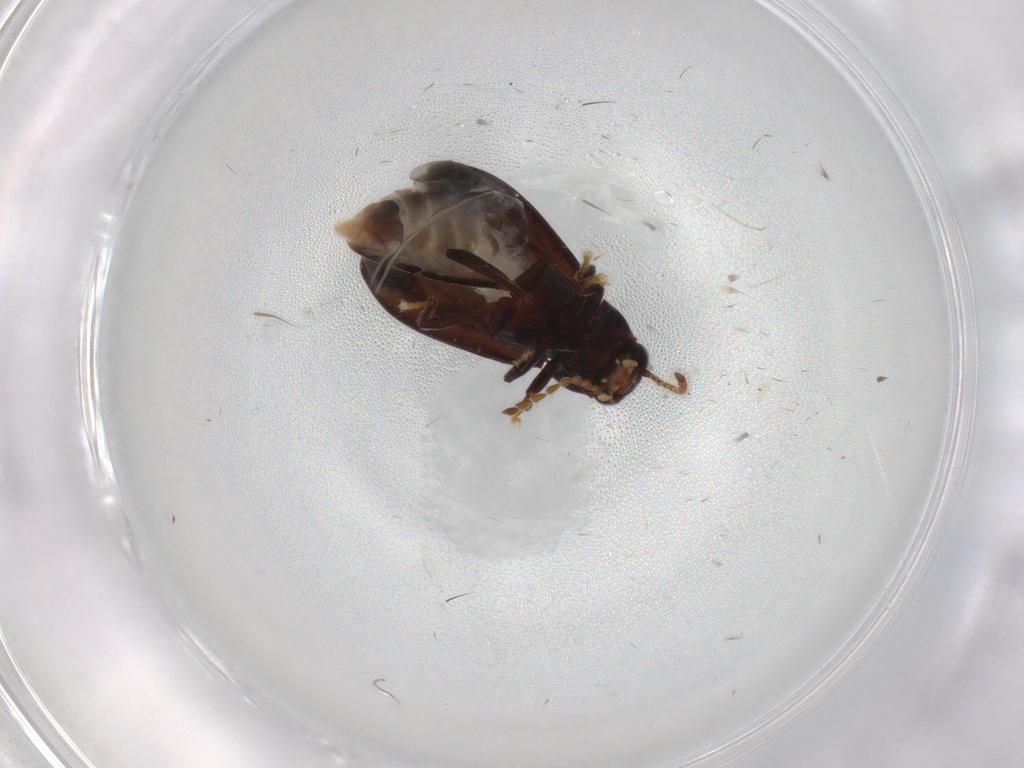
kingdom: Animalia
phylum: Arthropoda
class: Insecta
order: Coleoptera
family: Ptilodactylidae
